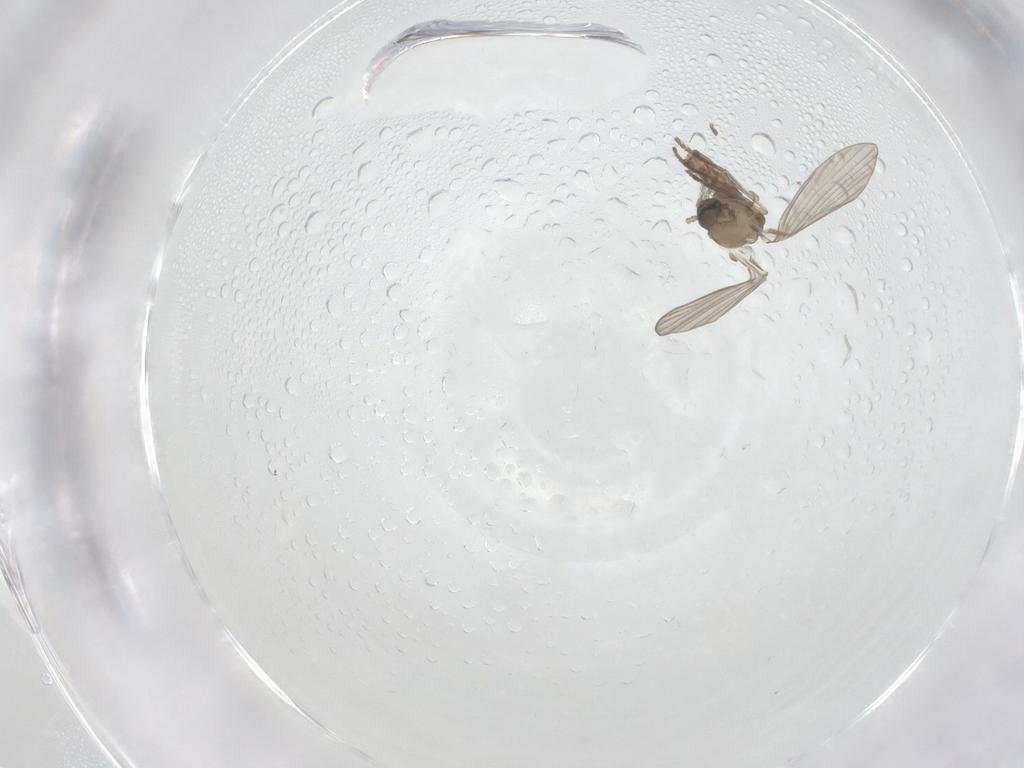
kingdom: Animalia
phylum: Arthropoda
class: Insecta
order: Diptera
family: Psychodidae
